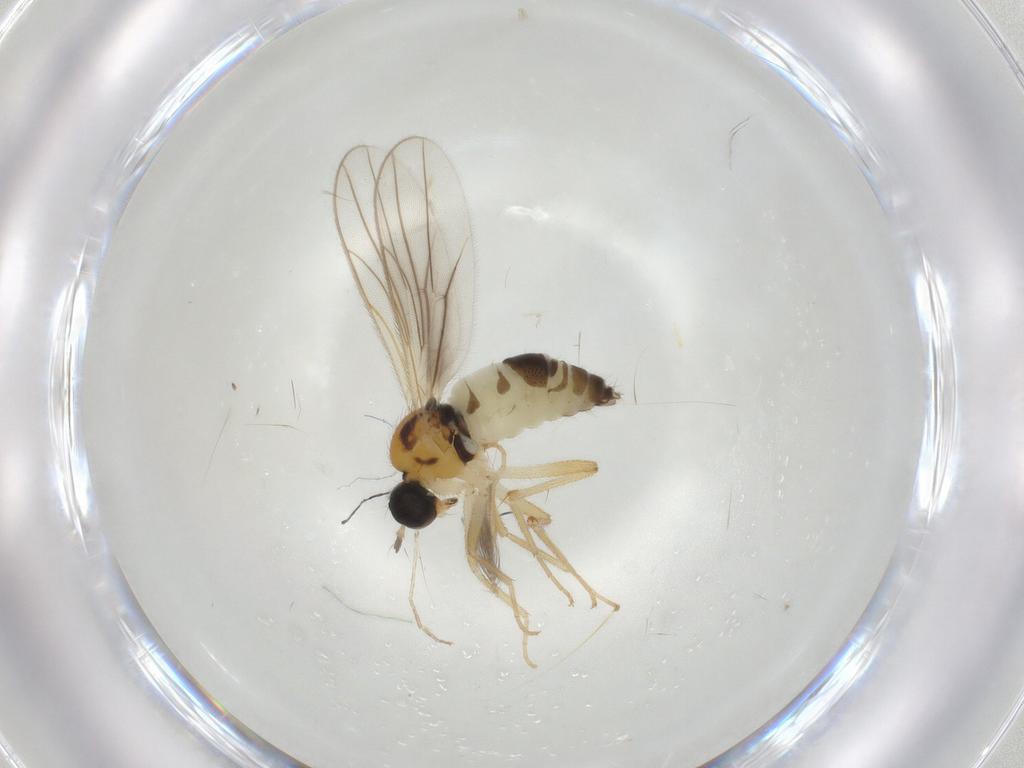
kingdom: Animalia
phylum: Arthropoda
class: Insecta
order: Diptera
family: Hybotidae
